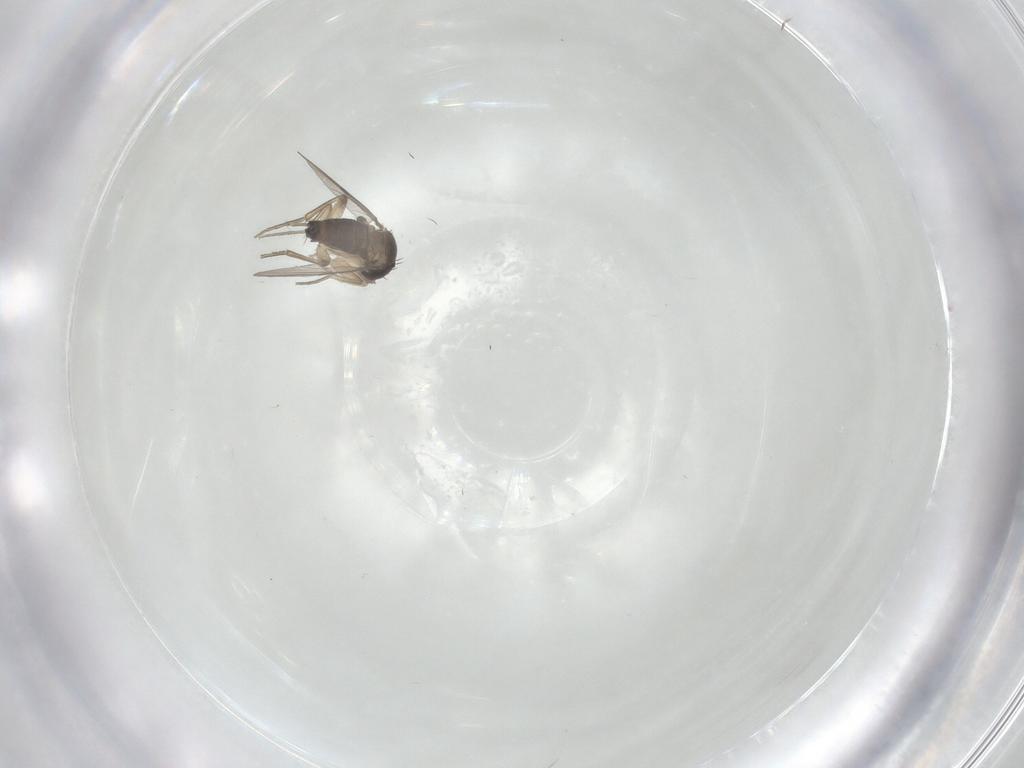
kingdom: Animalia
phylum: Arthropoda
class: Insecta
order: Diptera
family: Phoridae
